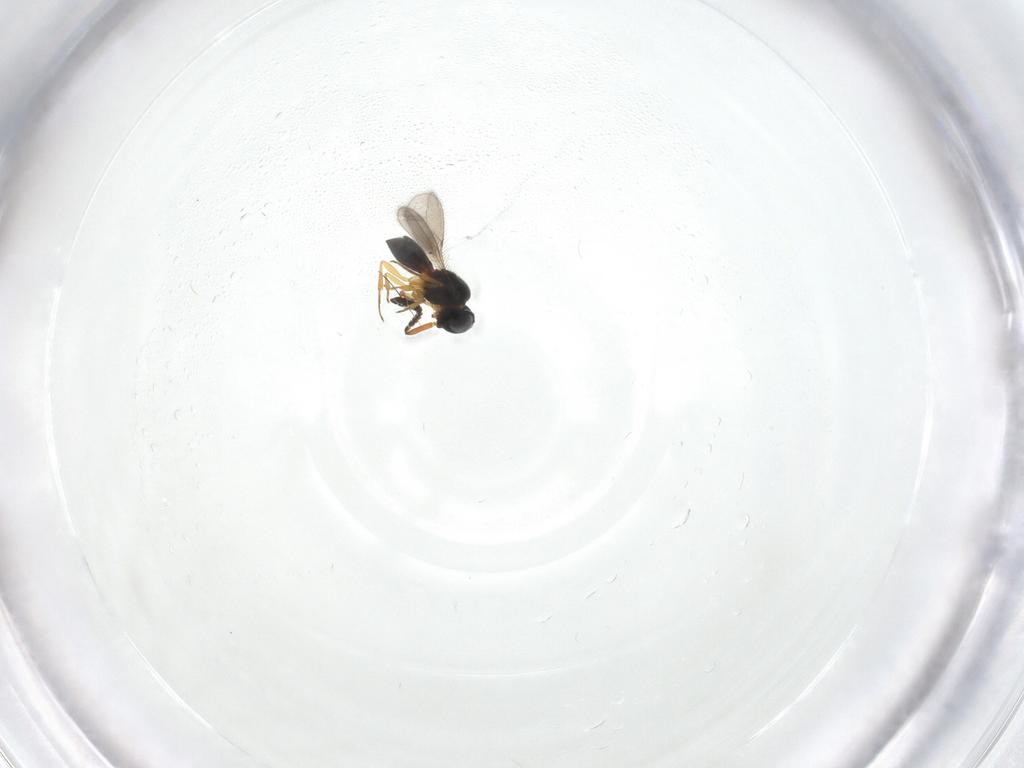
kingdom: Animalia
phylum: Arthropoda
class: Insecta
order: Hymenoptera
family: Scelionidae
